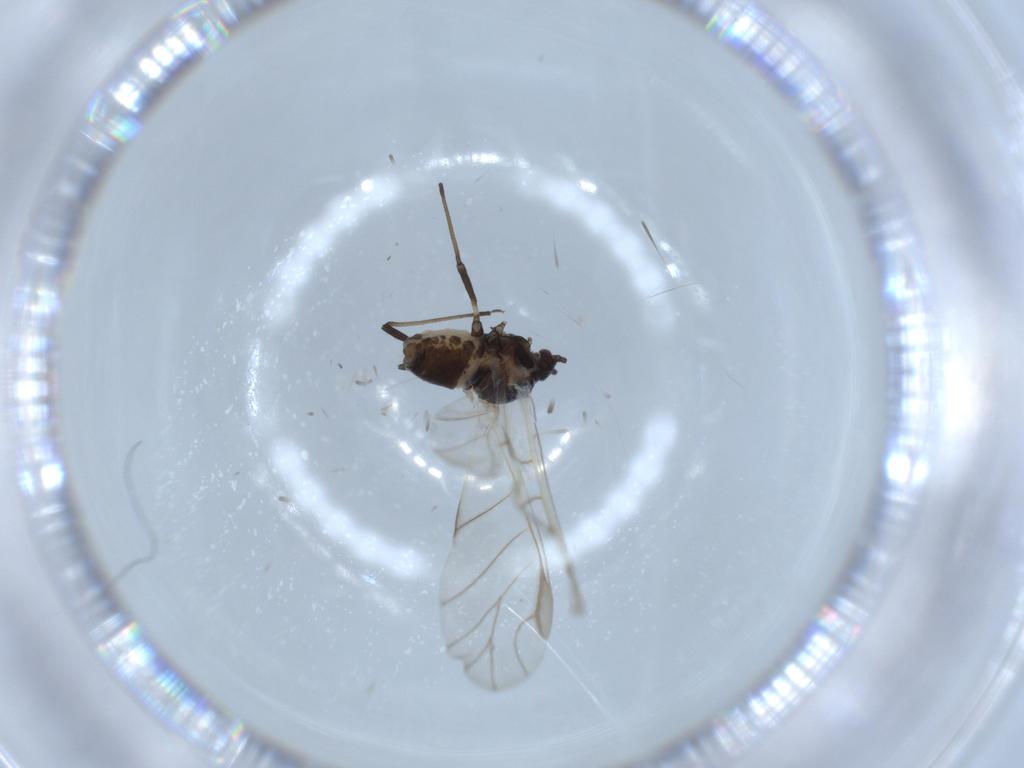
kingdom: Animalia
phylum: Arthropoda
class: Insecta
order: Hemiptera
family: Aphididae
